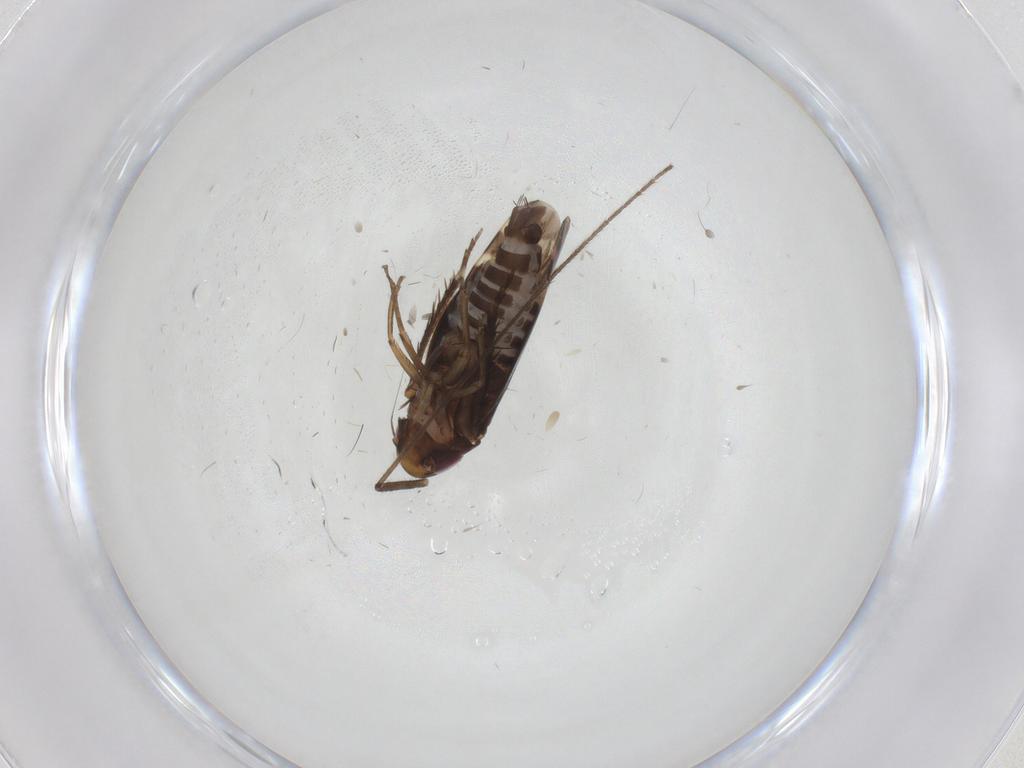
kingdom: Animalia
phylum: Arthropoda
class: Insecta
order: Hemiptera
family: Cicadellidae
